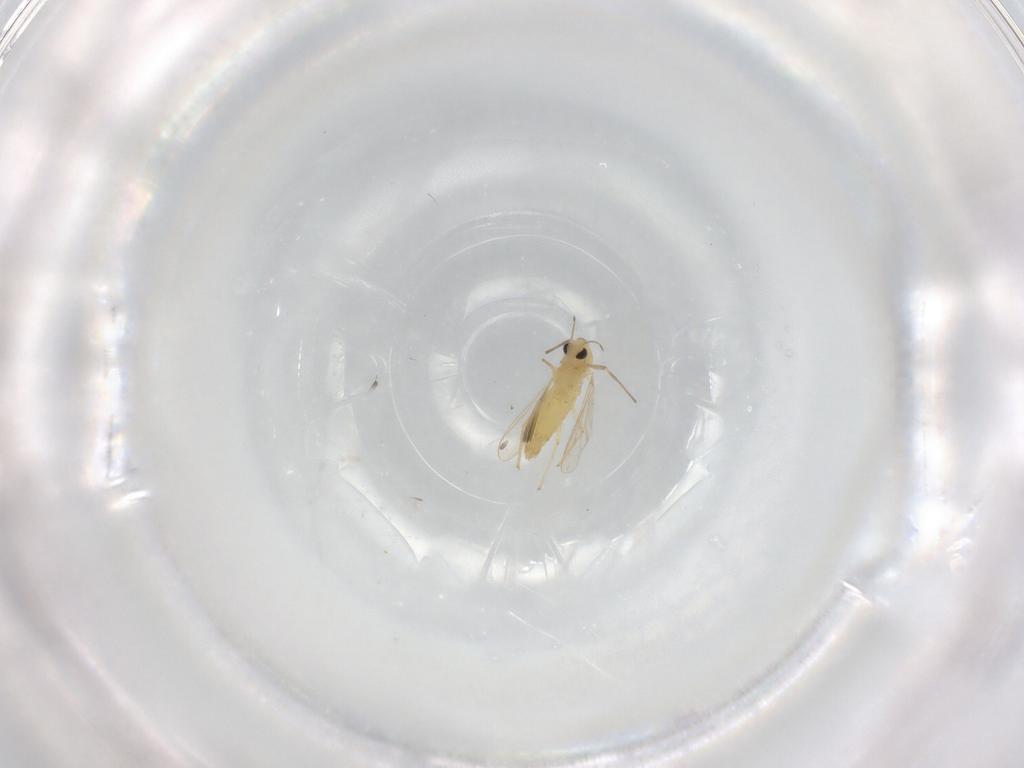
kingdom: Animalia
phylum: Arthropoda
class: Insecta
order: Diptera
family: Chironomidae
